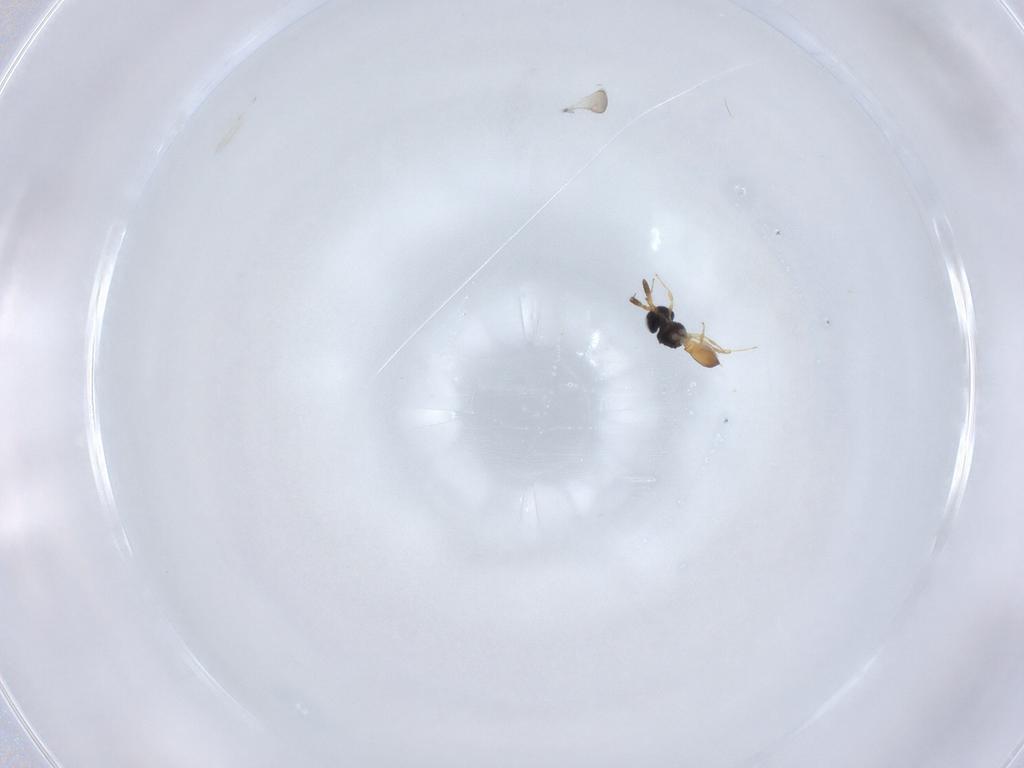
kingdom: Animalia
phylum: Arthropoda
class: Insecta
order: Hymenoptera
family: Scelionidae
